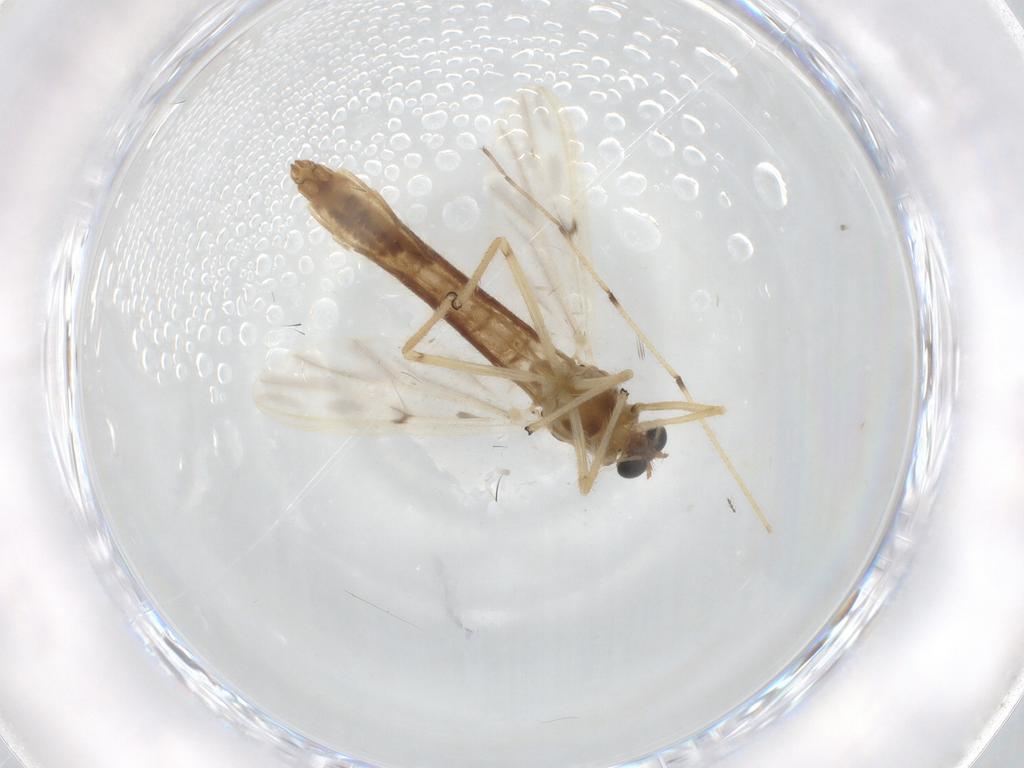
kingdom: Animalia
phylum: Arthropoda
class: Insecta
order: Diptera
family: Chironomidae
